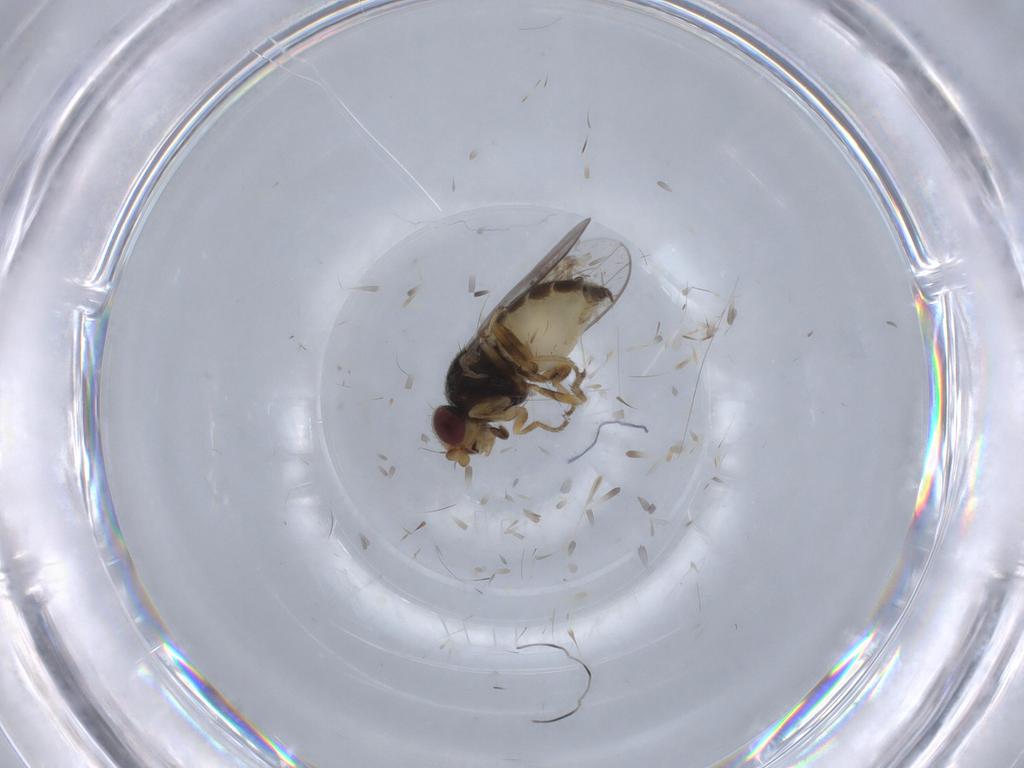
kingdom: Animalia
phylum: Arthropoda
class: Insecta
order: Diptera
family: Chloropidae
